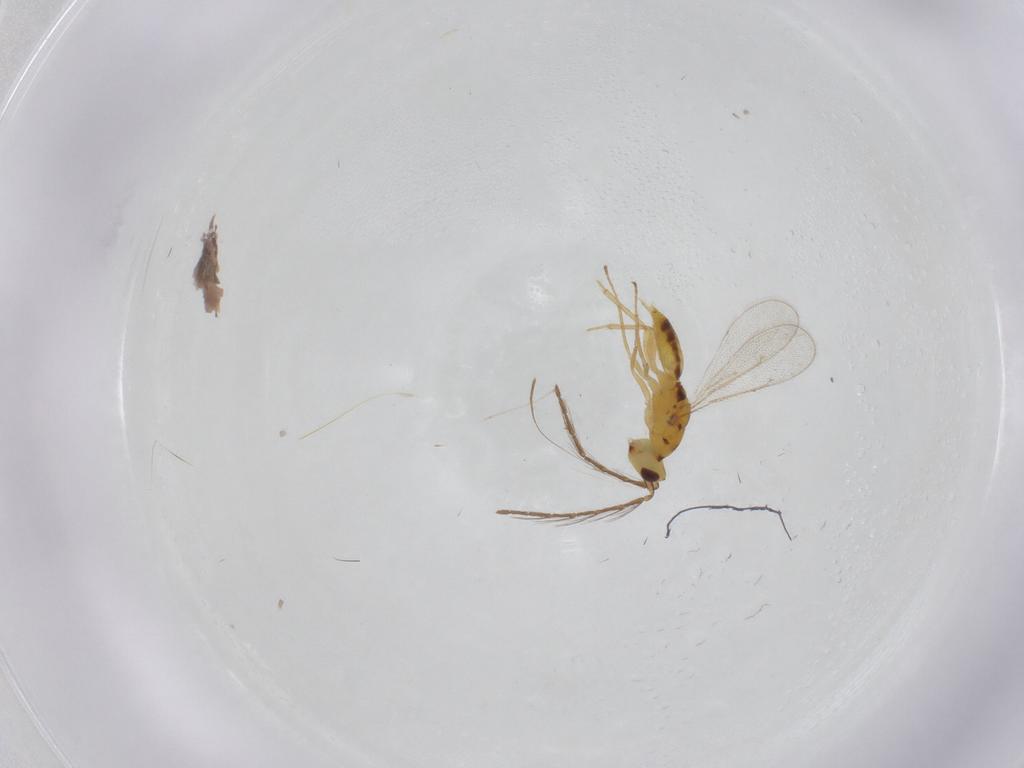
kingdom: Animalia
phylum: Arthropoda
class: Insecta
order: Hymenoptera
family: Eulophidae
